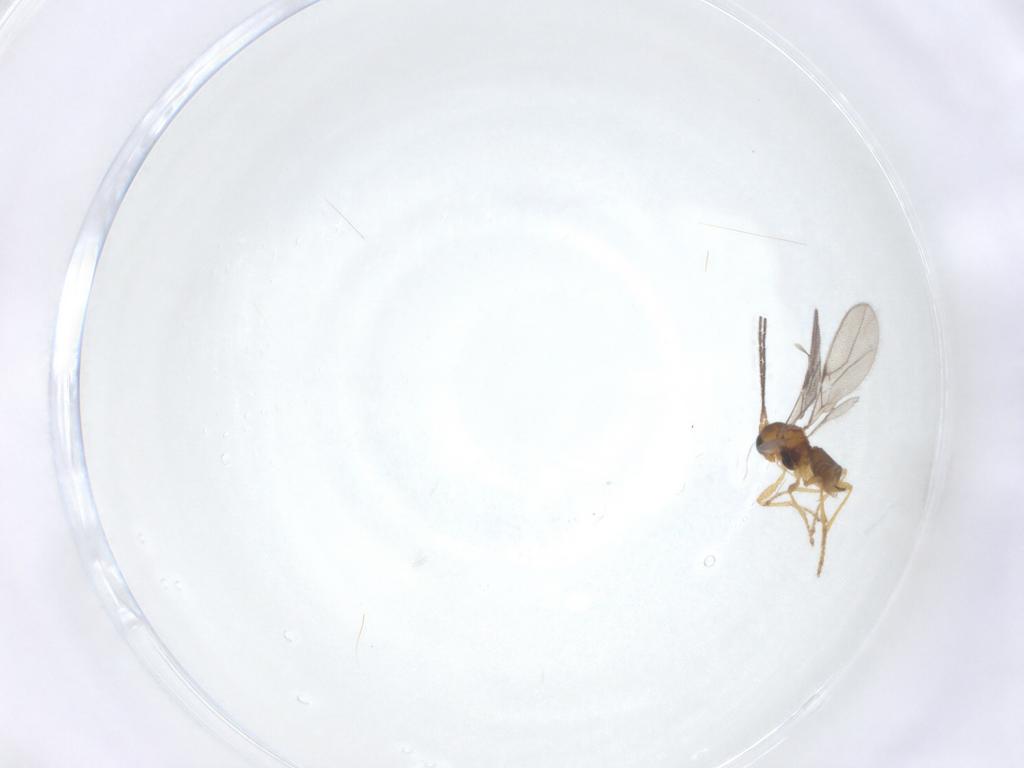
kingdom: Animalia
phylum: Arthropoda
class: Insecta
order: Hymenoptera
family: Braconidae
